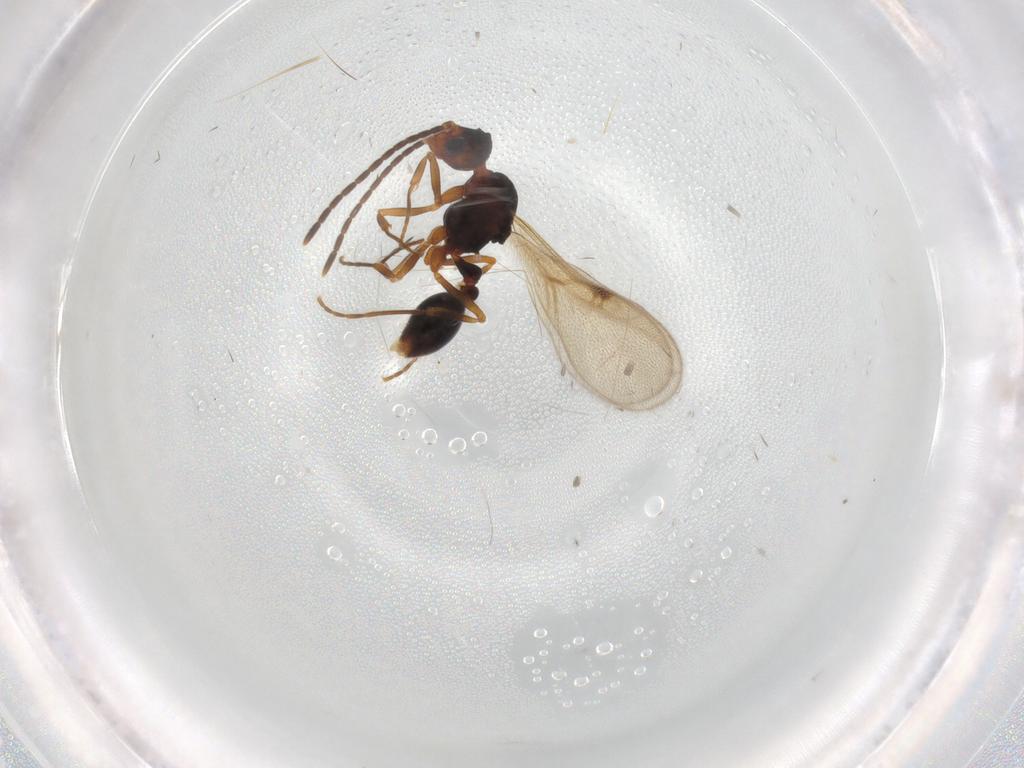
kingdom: Animalia
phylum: Arthropoda
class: Insecta
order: Hymenoptera
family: Formicidae
